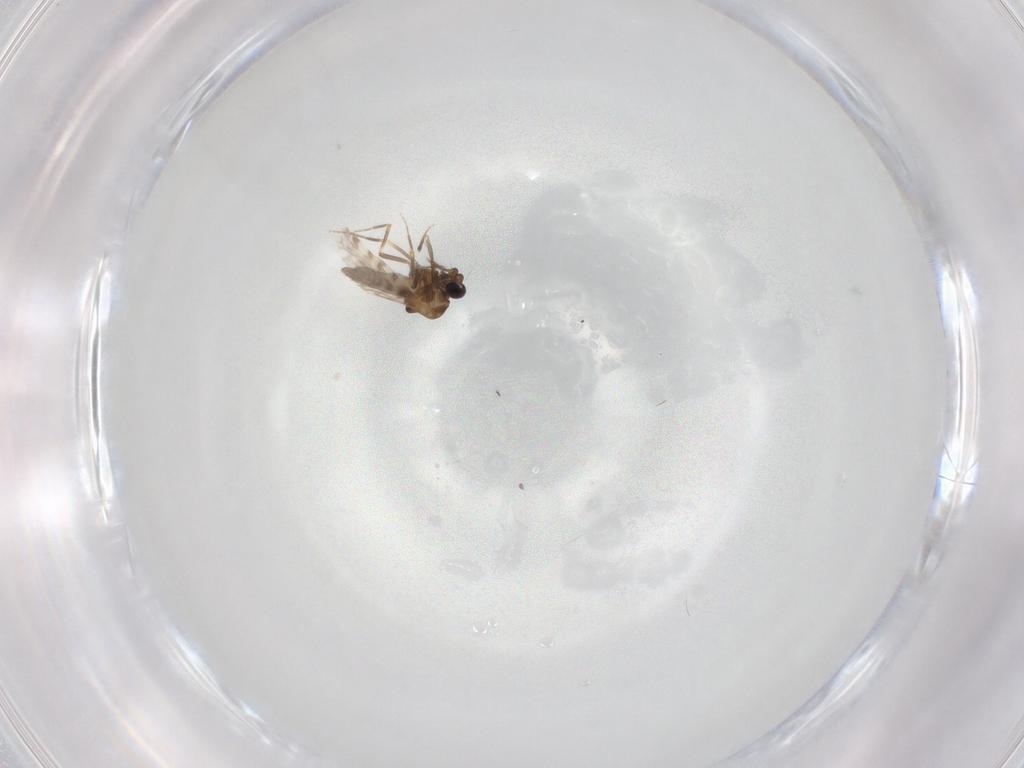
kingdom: Animalia
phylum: Arthropoda
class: Insecta
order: Diptera
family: Ceratopogonidae
